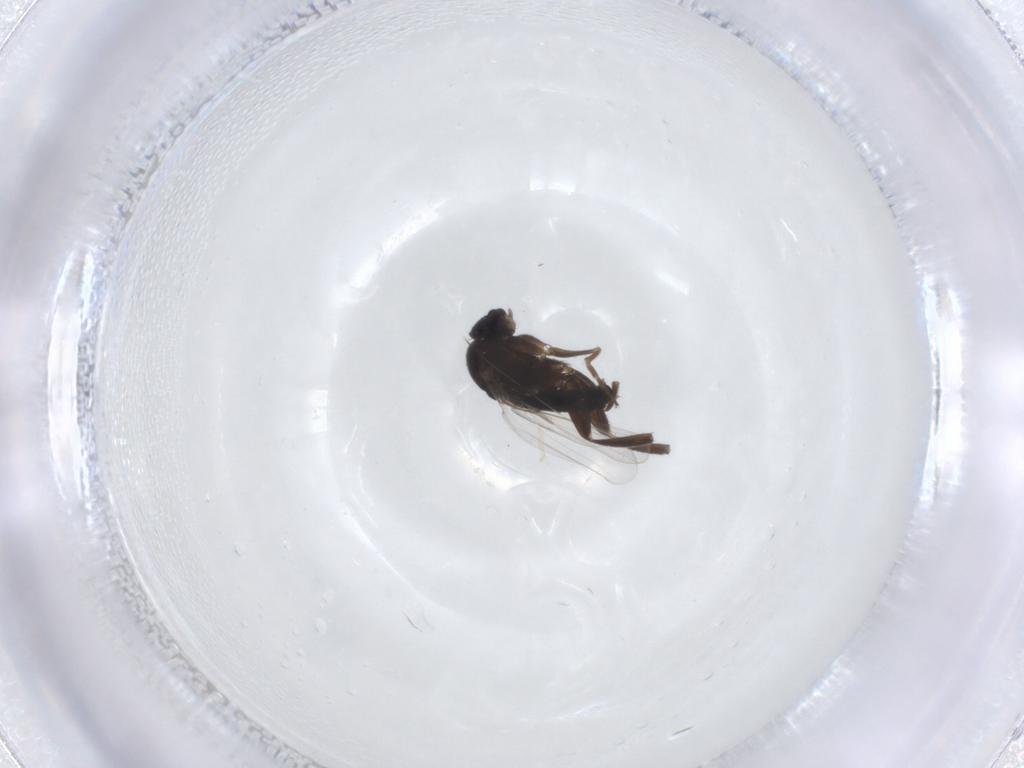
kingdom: Animalia
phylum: Arthropoda
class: Insecta
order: Diptera
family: Phoridae
